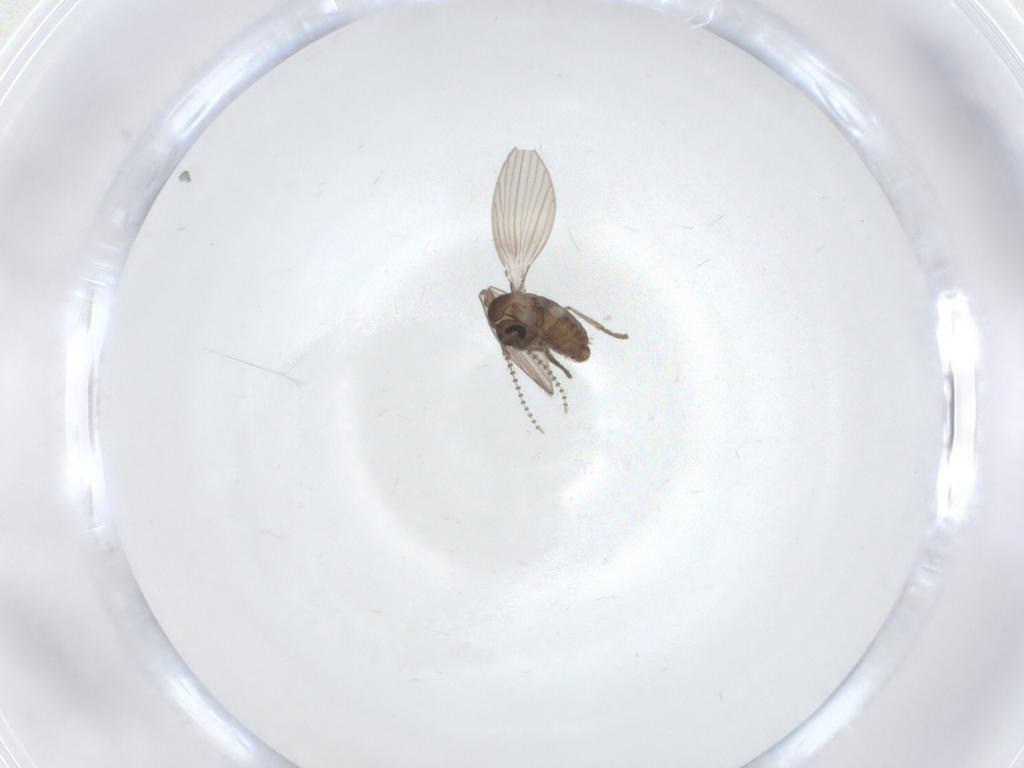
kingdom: Animalia
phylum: Arthropoda
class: Insecta
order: Diptera
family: Psychodidae
